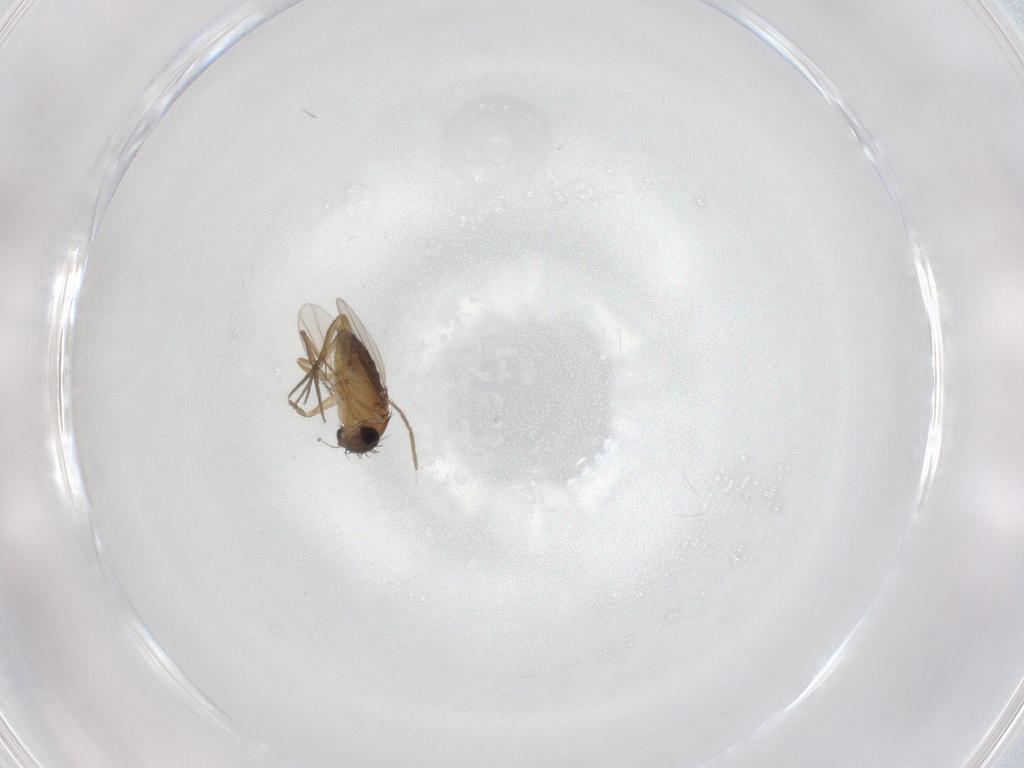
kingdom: Animalia
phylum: Arthropoda
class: Insecta
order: Diptera
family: Phoridae
